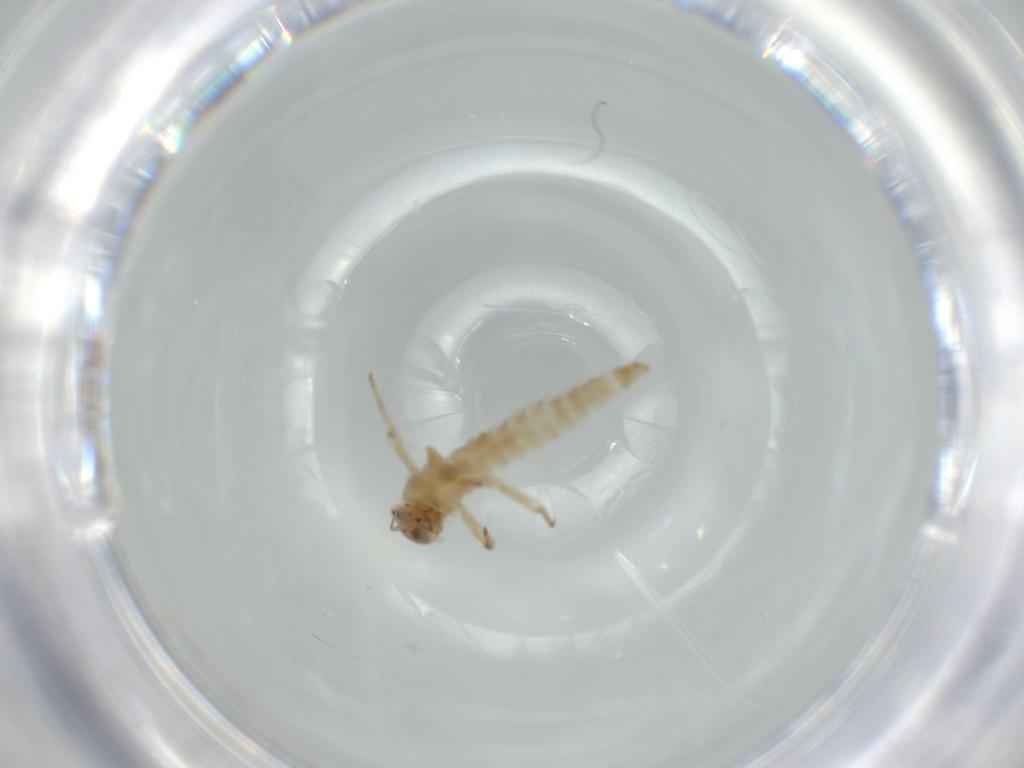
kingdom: Animalia
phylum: Arthropoda
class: Insecta
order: Ephemeroptera
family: Baetidae
